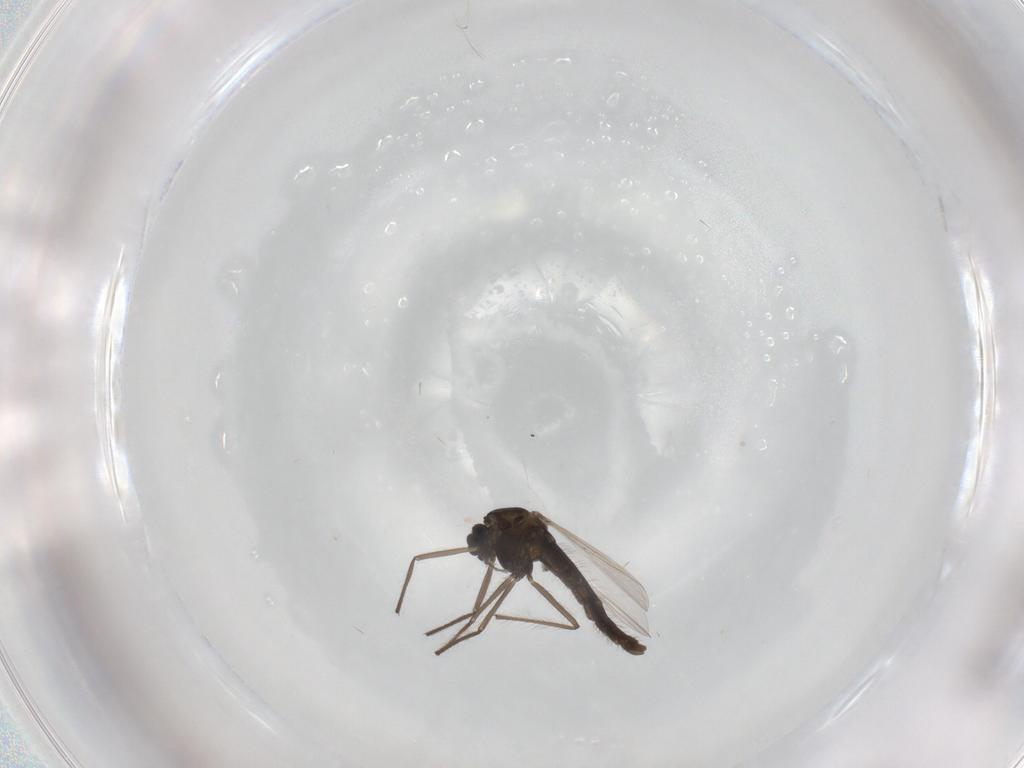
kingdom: Animalia
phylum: Arthropoda
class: Insecta
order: Diptera
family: Chironomidae
